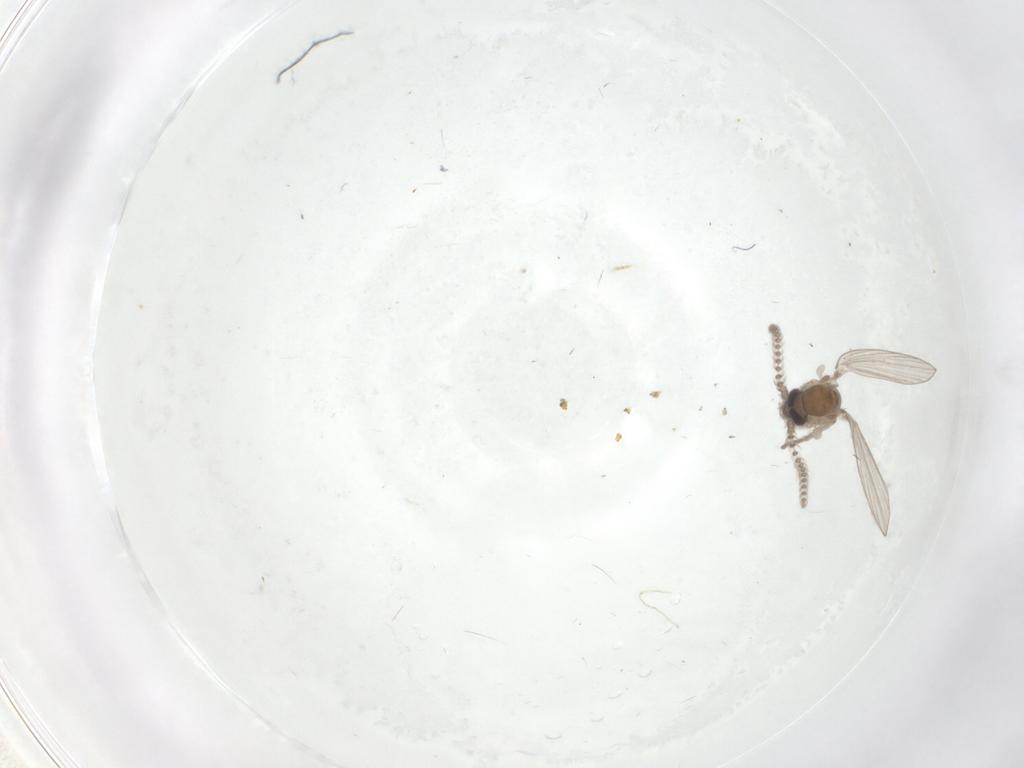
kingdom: Animalia
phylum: Arthropoda
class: Insecta
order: Diptera
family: Psychodidae
